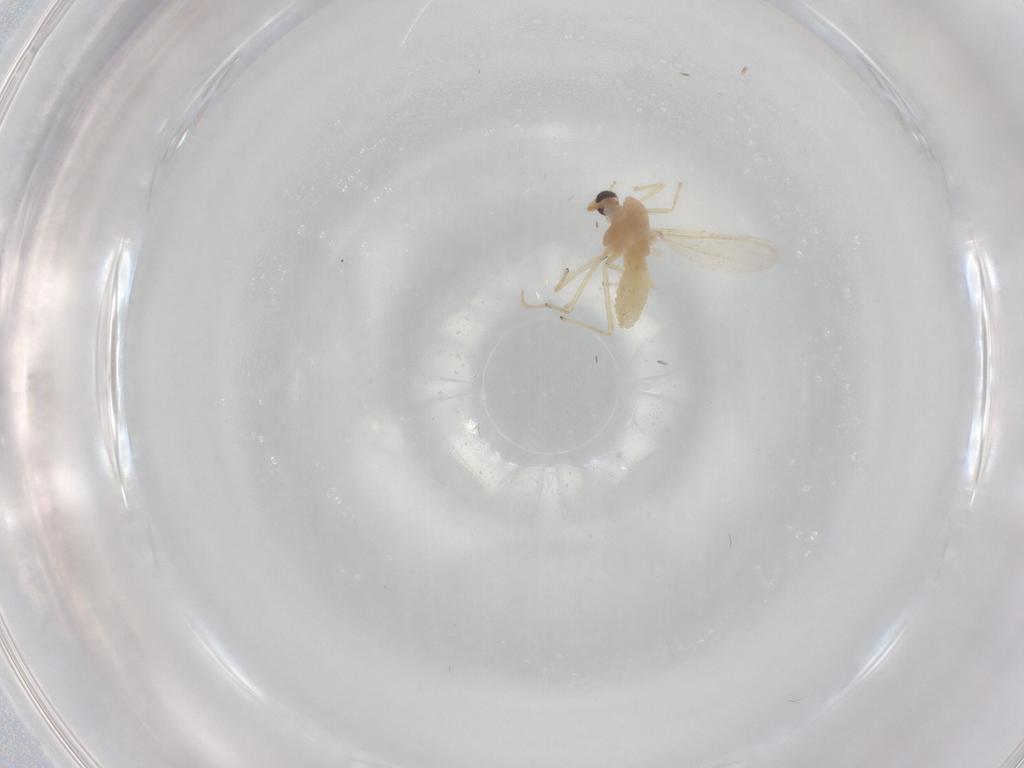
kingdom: Animalia
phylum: Arthropoda
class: Insecta
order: Diptera
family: Chironomidae
